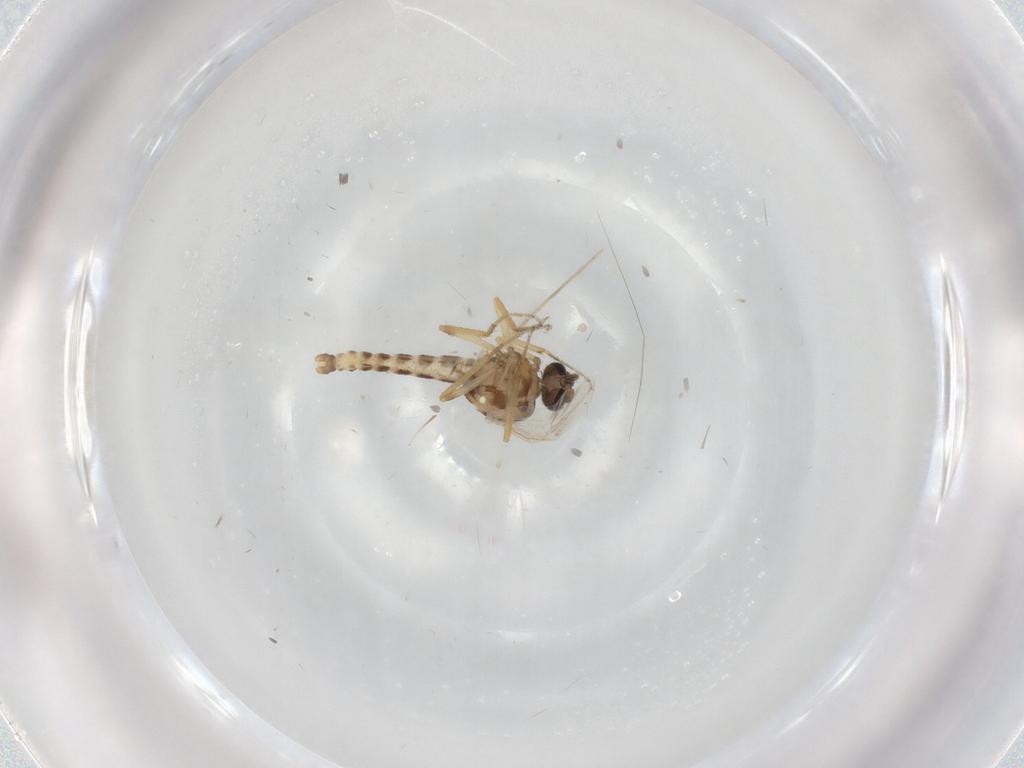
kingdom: Animalia
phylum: Arthropoda
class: Insecta
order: Diptera
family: Ceratopogonidae
